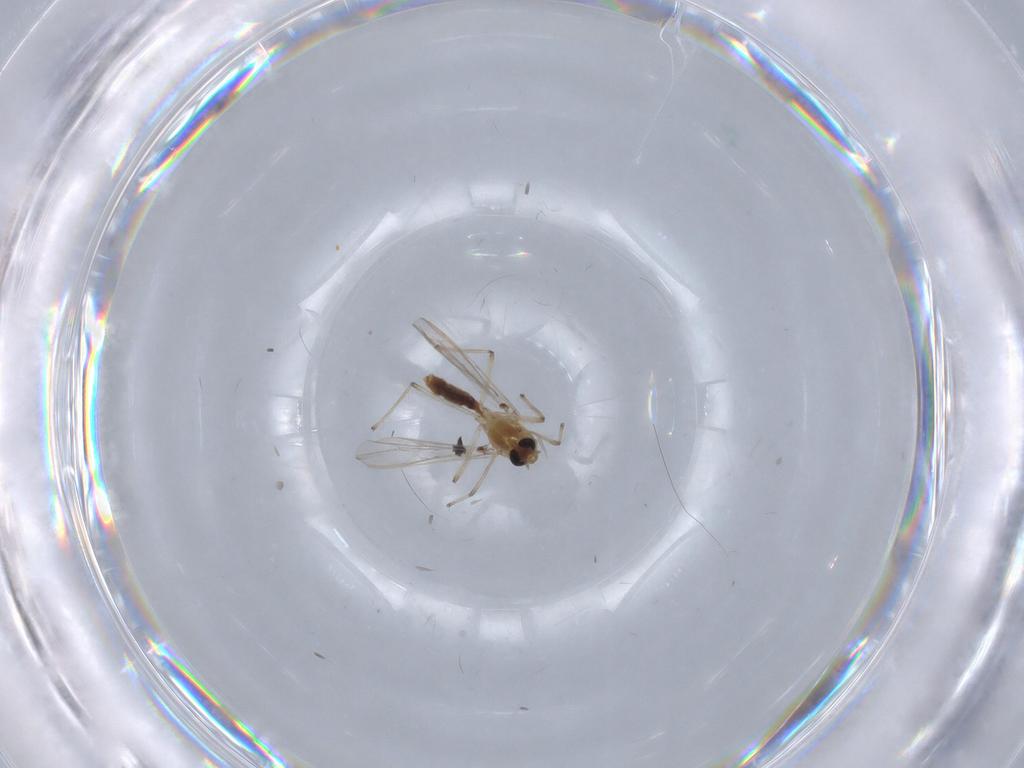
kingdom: Animalia
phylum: Arthropoda
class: Insecta
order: Diptera
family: Chironomidae
